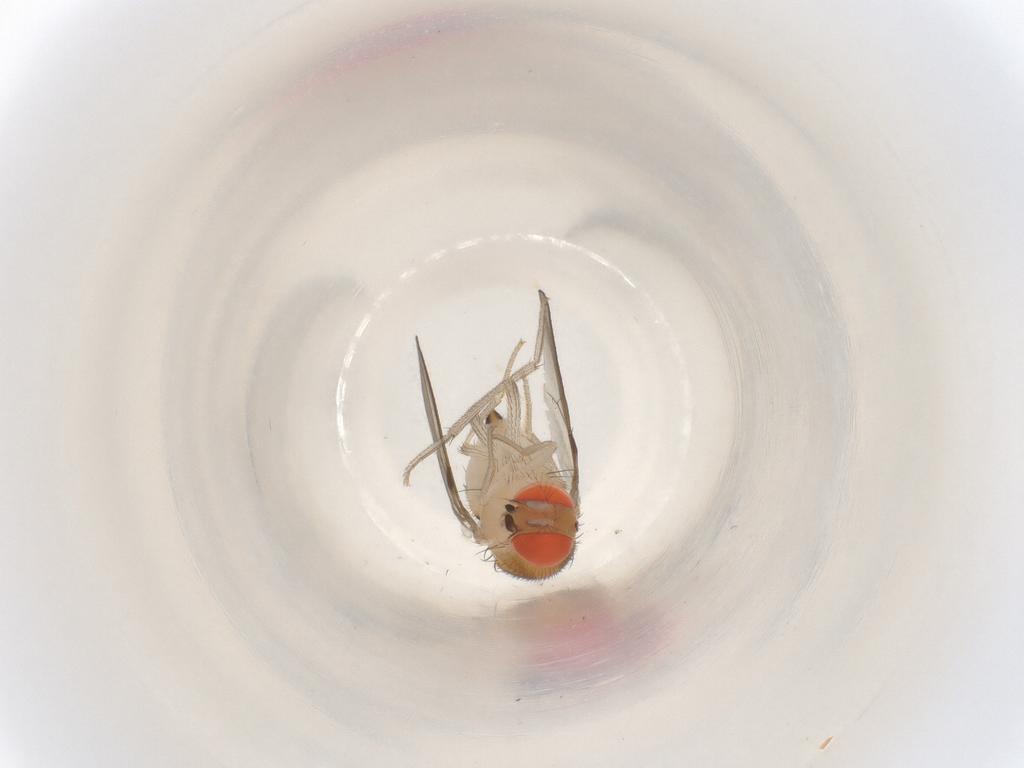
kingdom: Animalia
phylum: Arthropoda
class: Insecta
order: Diptera
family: Drosophilidae
